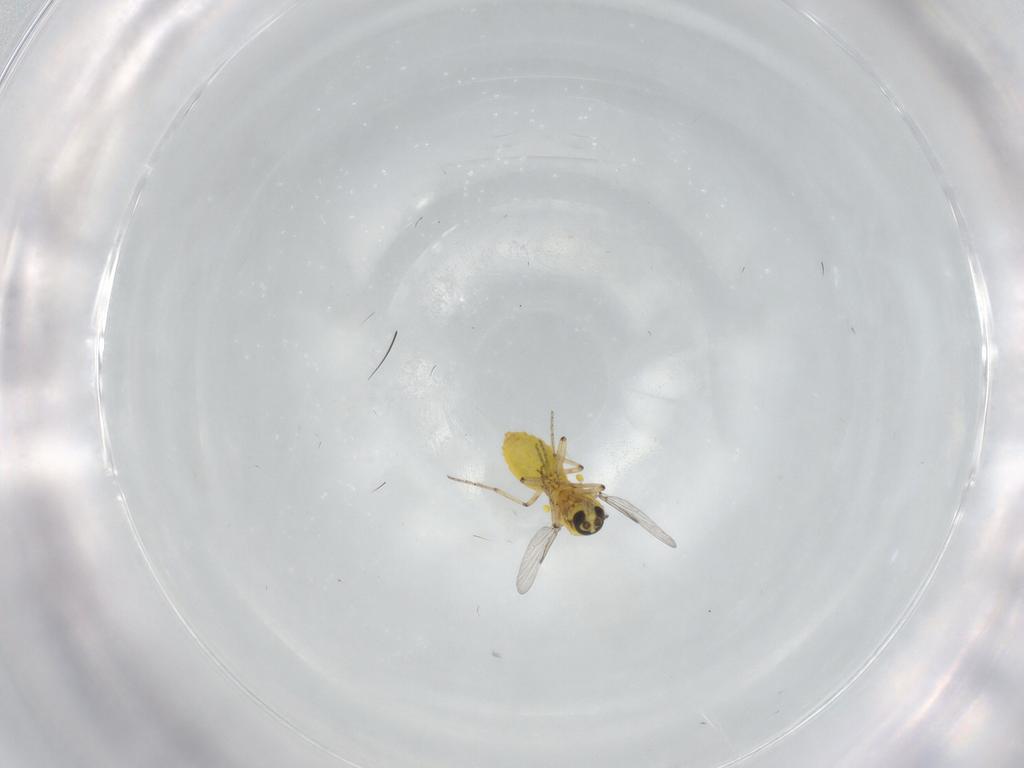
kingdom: Animalia
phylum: Arthropoda
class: Insecta
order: Diptera
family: Ceratopogonidae
